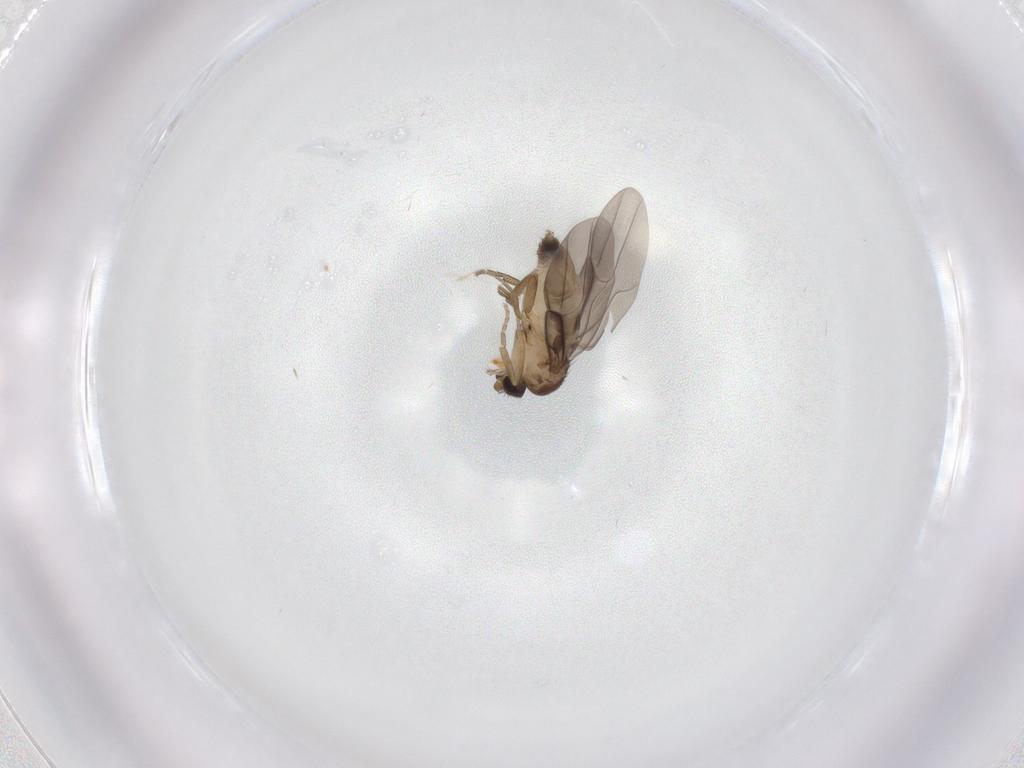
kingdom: Animalia
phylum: Arthropoda
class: Insecta
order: Diptera
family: Phoridae
